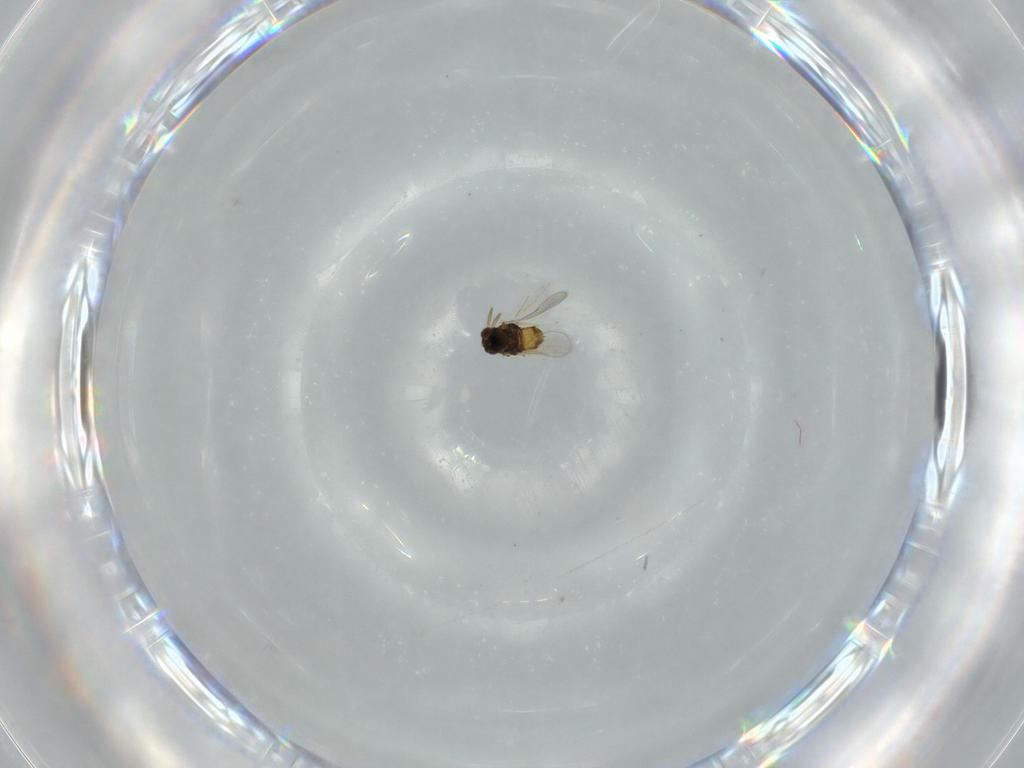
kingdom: Animalia
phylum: Arthropoda
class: Insecta
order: Hymenoptera
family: Aphelinidae
